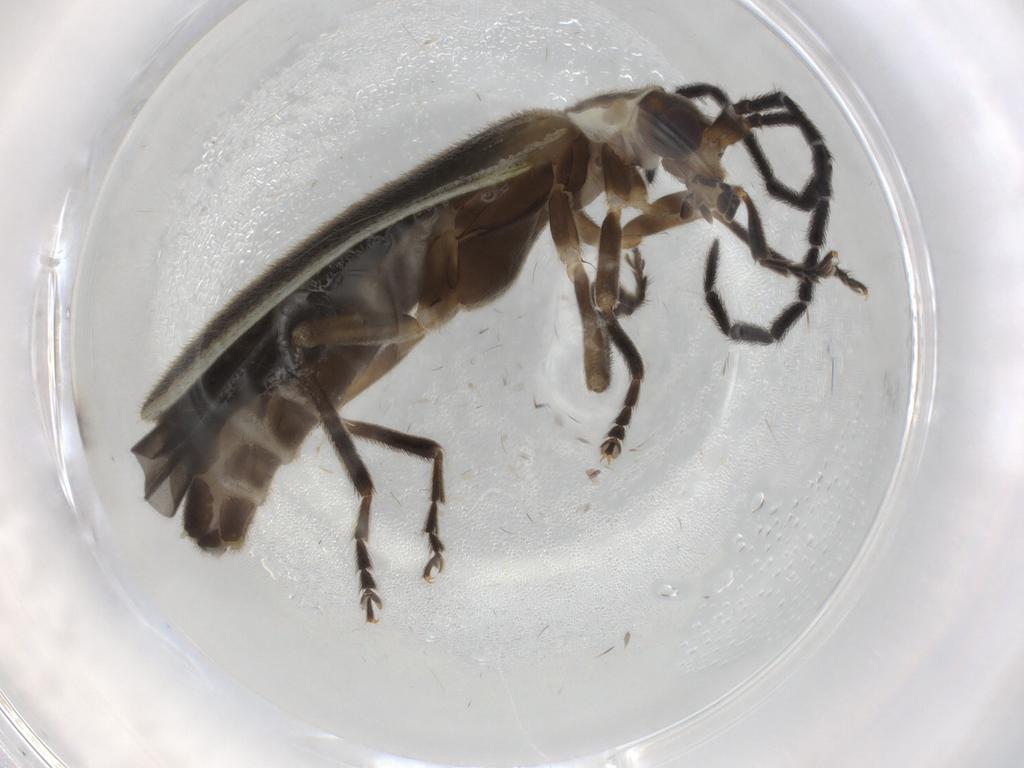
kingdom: Animalia
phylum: Arthropoda
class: Insecta
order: Coleoptera
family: Cantharidae
